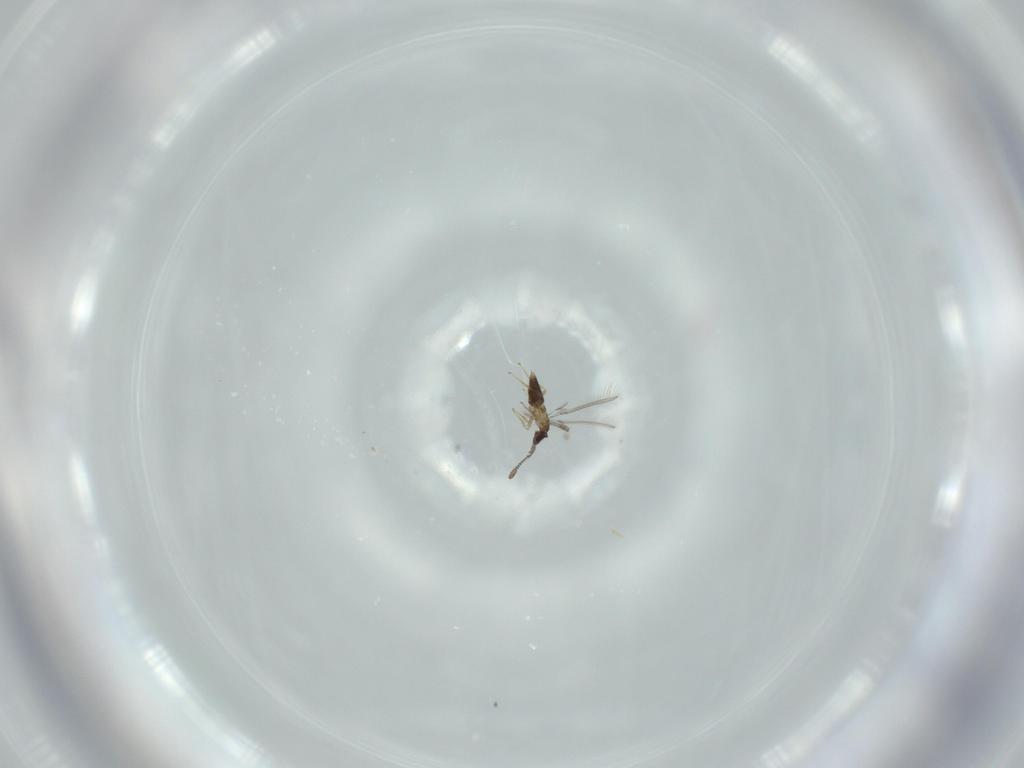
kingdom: Animalia
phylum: Arthropoda
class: Insecta
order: Hymenoptera
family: Mymaridae
